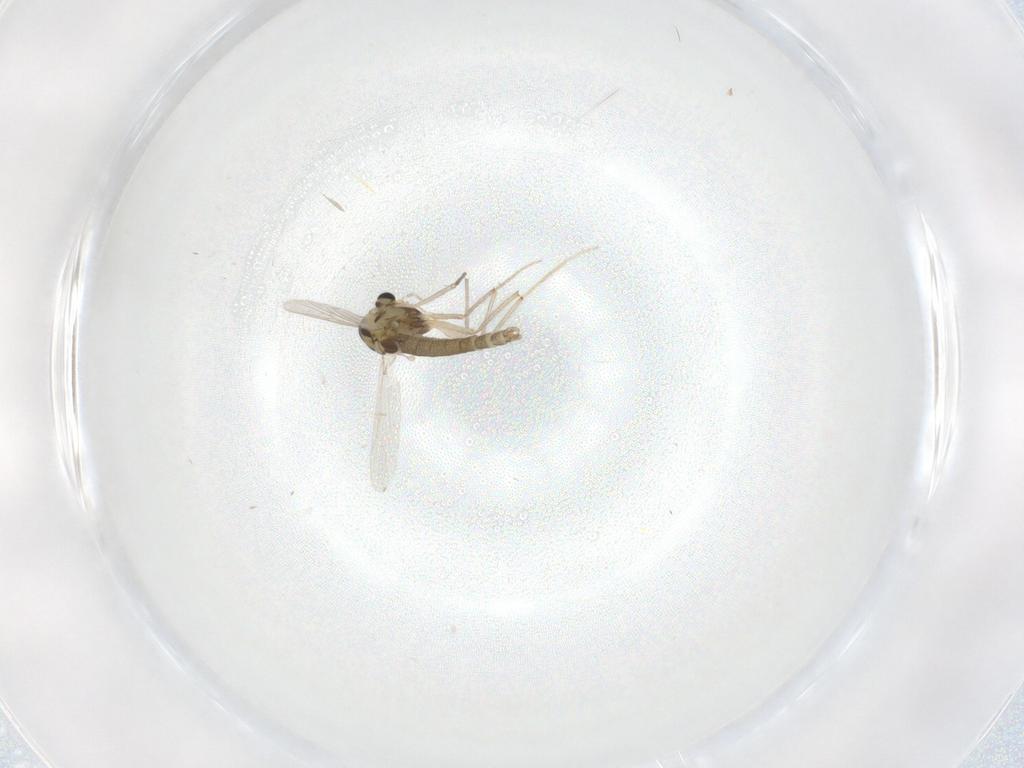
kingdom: Animalia
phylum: Arthropoda
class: Insecta
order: Diptera
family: Chironomidae
